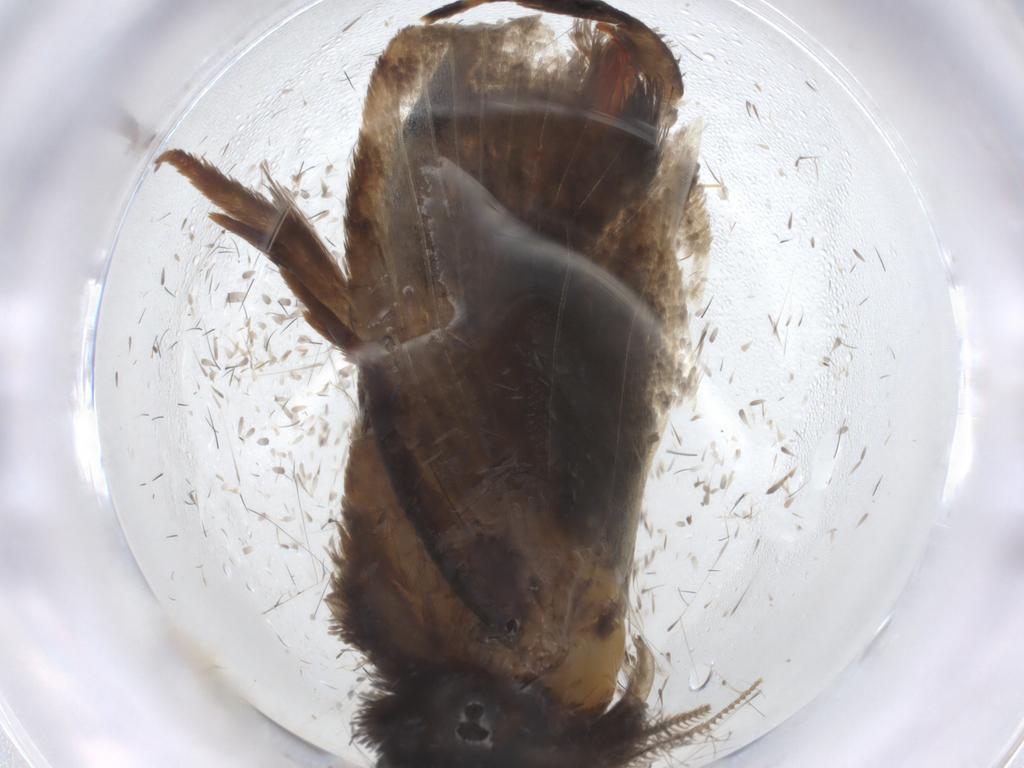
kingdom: Animalia
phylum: Arthropoda
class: Insecta
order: Lepidoptera
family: Tineidae
